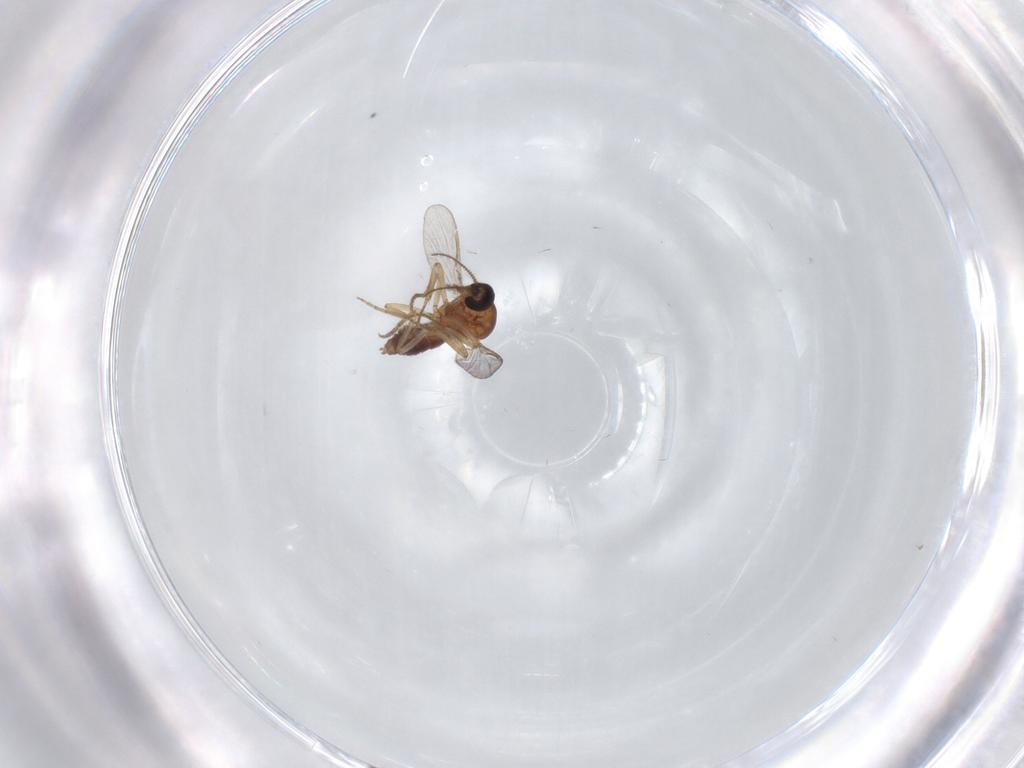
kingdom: Animalia
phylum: Arthropoda
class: Insecta
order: Diptera
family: Ceratopogonidae
